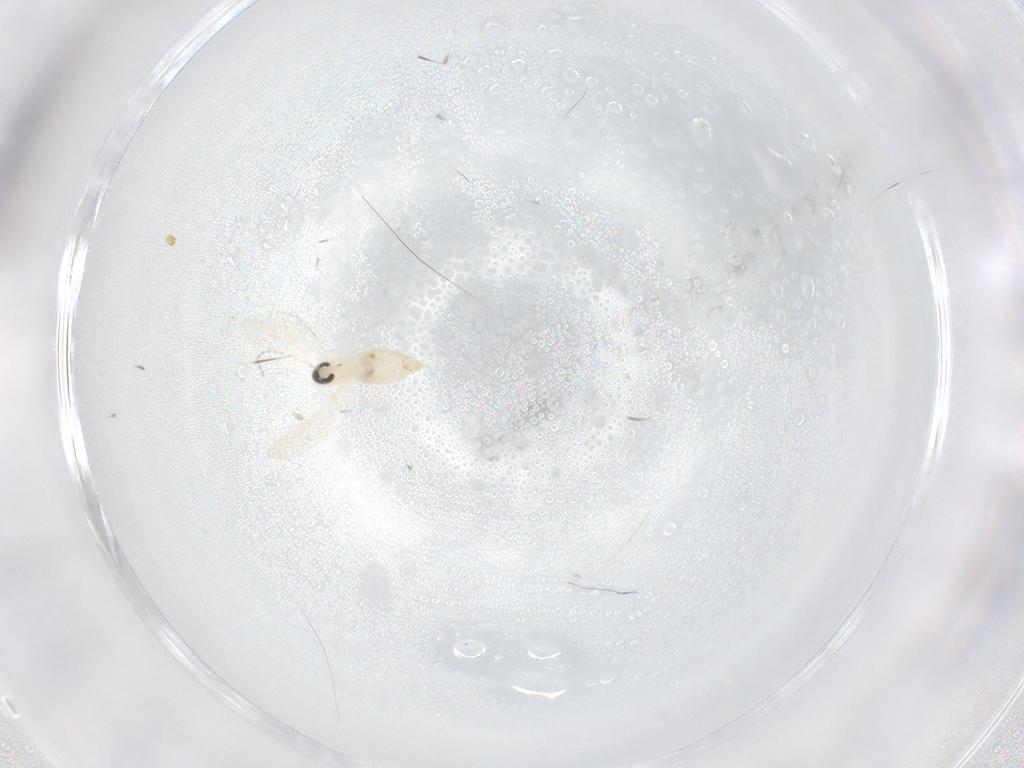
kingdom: Animalia
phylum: Arthropoda
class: Insecta
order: Diptera
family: Cecidomyiidae
